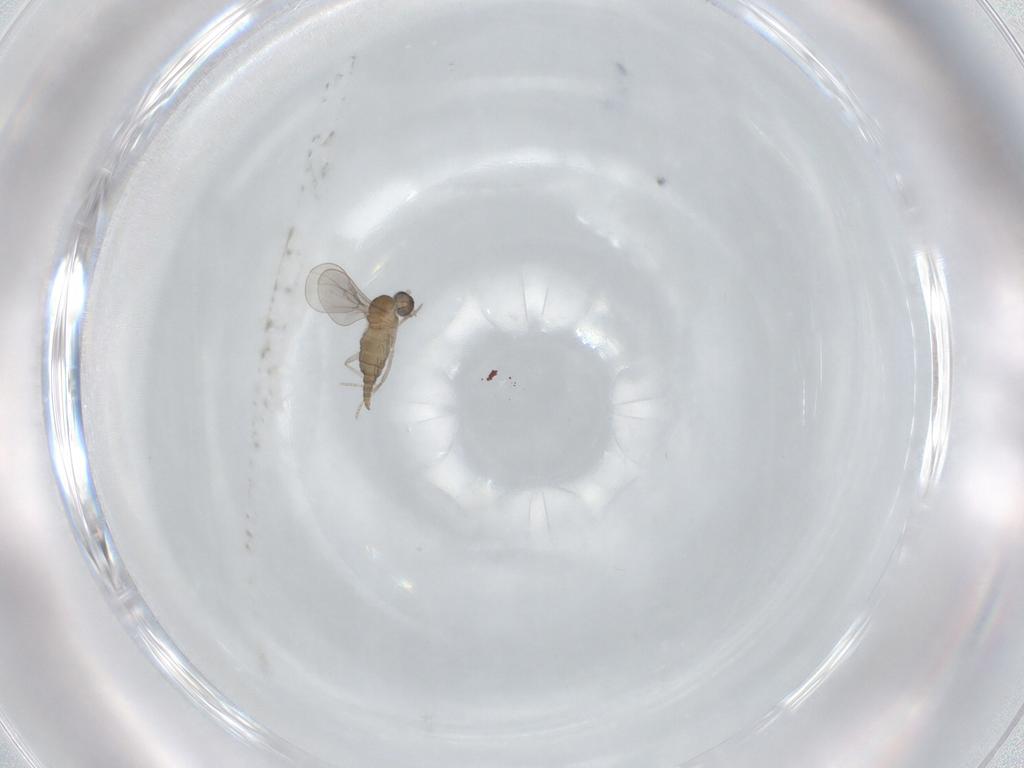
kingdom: Animalia
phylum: Arthropoda
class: Insecta
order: Diptera
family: Cecidomyiidae
